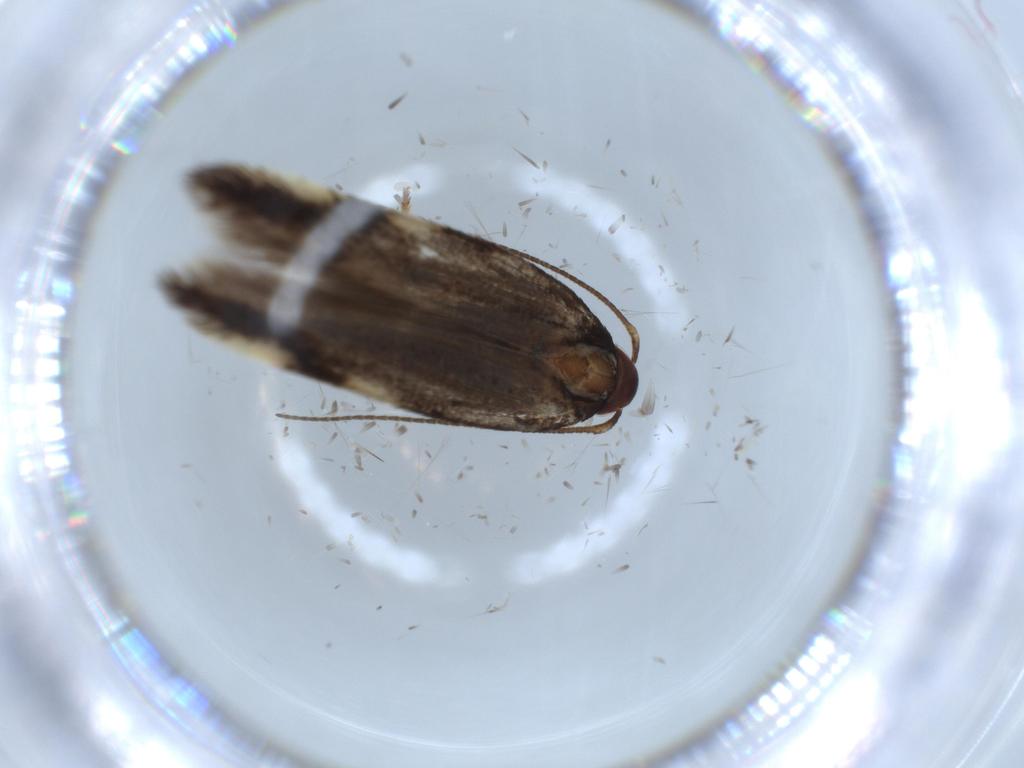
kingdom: Animalia
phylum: Arthropoda
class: Insecta
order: Lepidoptera
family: Cosmopterigidae
